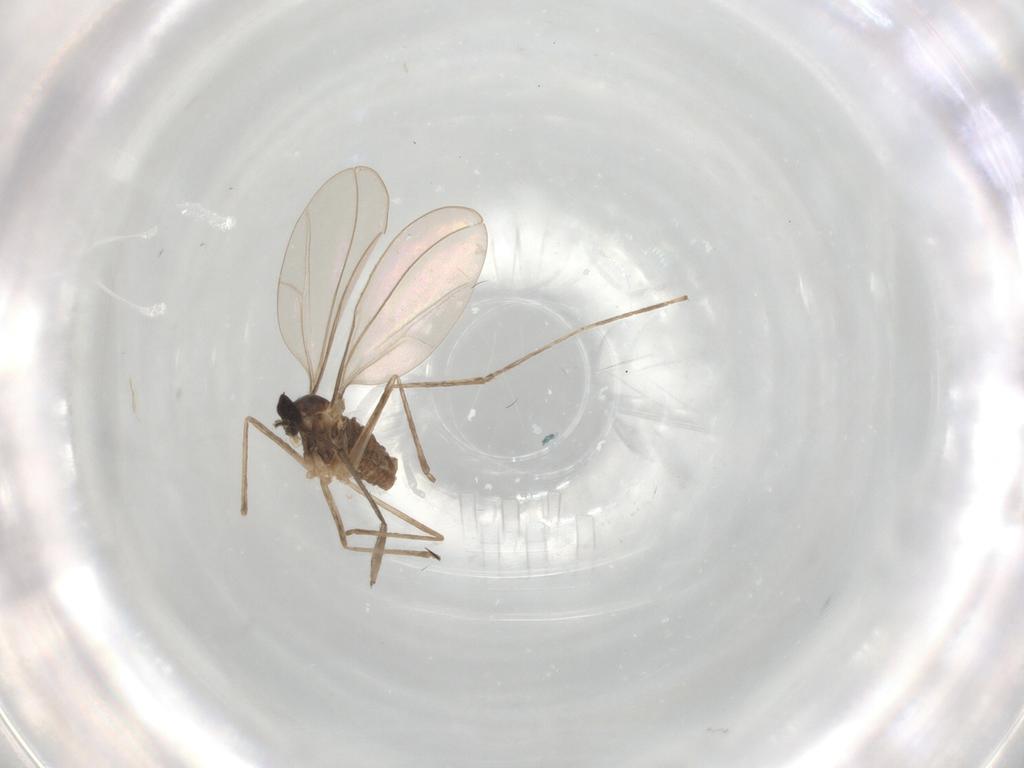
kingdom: Animalia
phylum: Arthropoda
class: Insecta
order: Diptera
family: Cecidomyiidae
